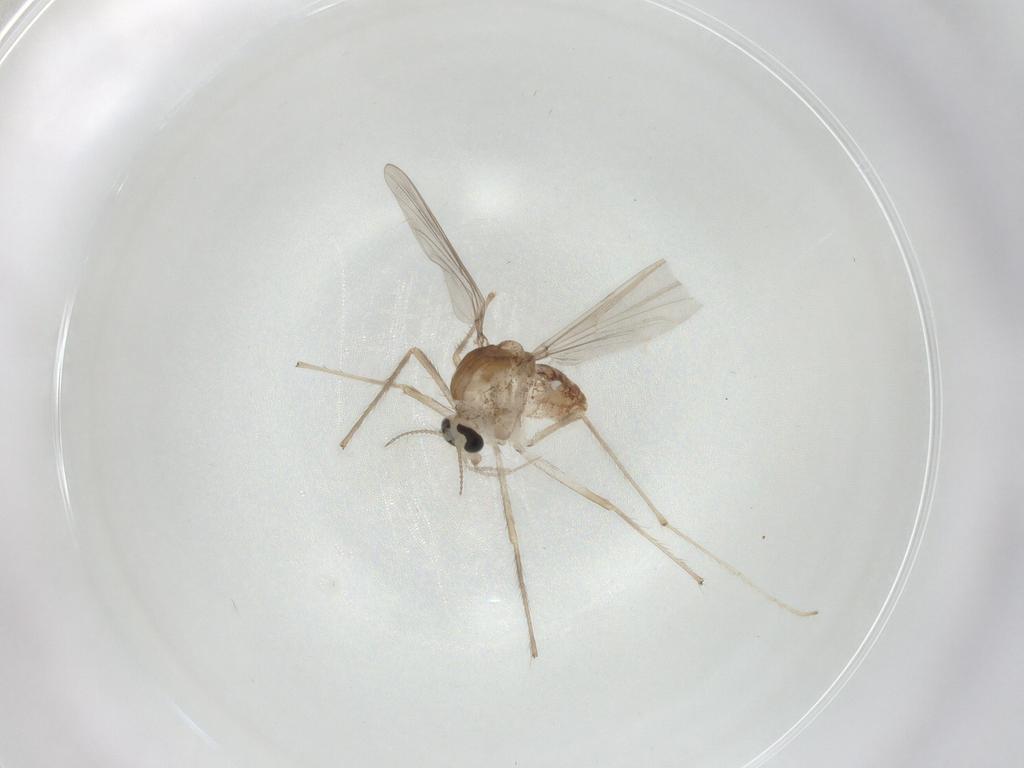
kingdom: Animalia
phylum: Arthropoda
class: Insecta
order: Diptera
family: Chironomidae
